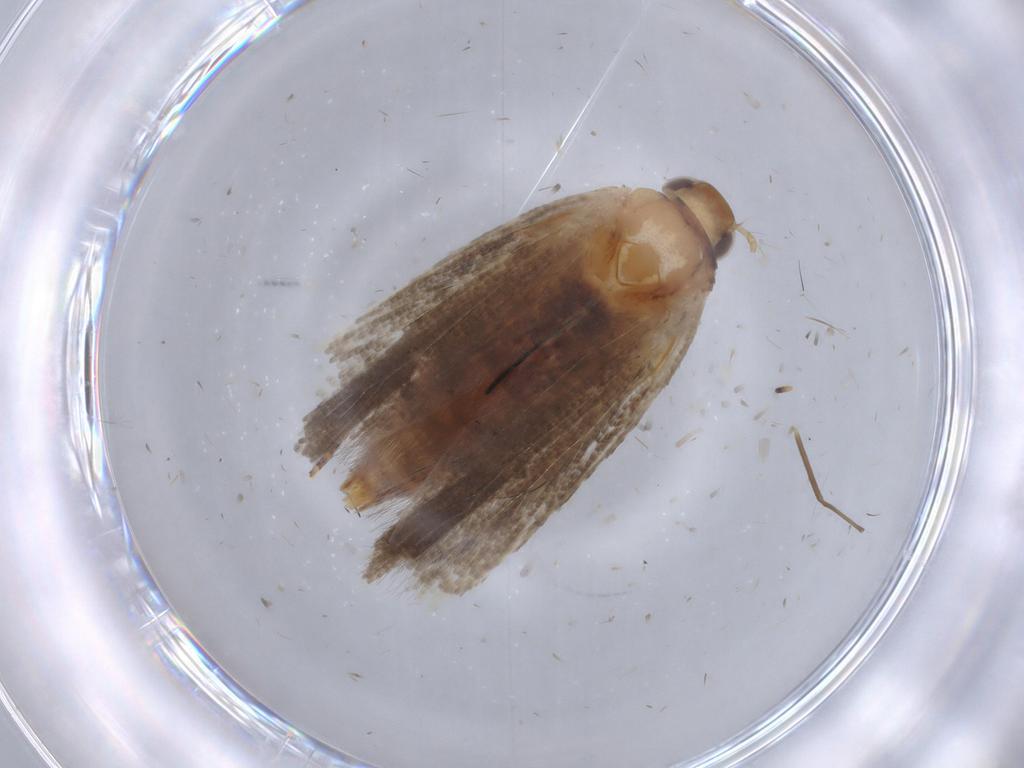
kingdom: Animalia
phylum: Arthropoda
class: Insecta
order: Lepidoptera
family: Gelechiidae
